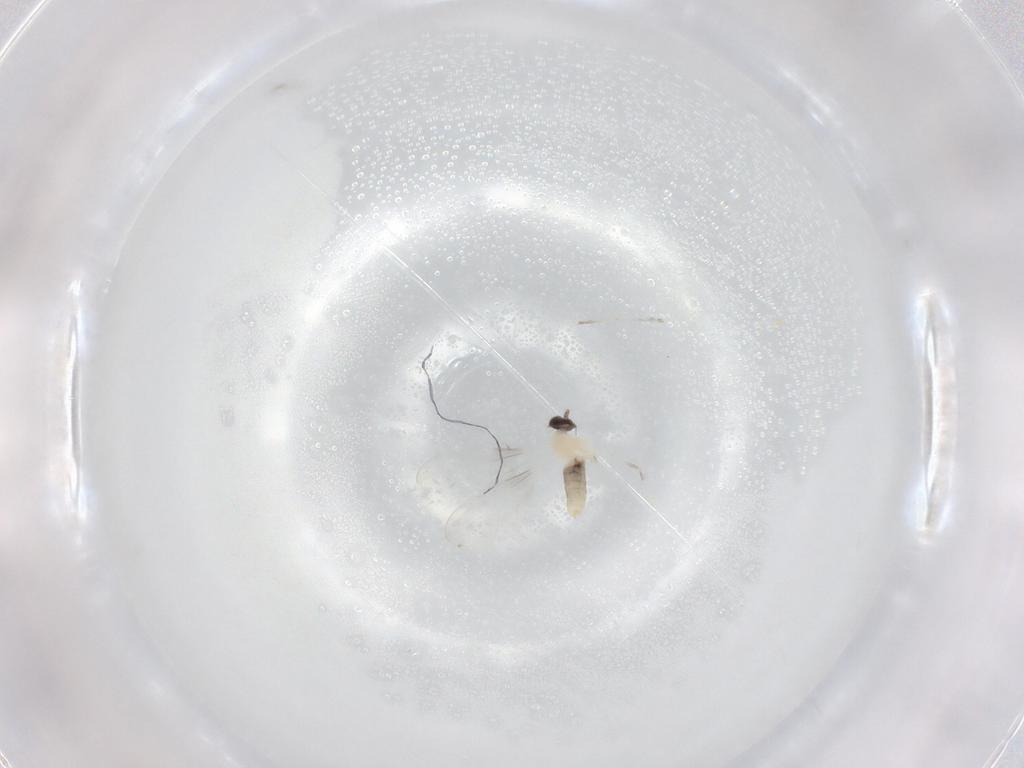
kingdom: Animalia
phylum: Arthropoda
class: Insecta
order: Diptera
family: Cecidomyiidae
